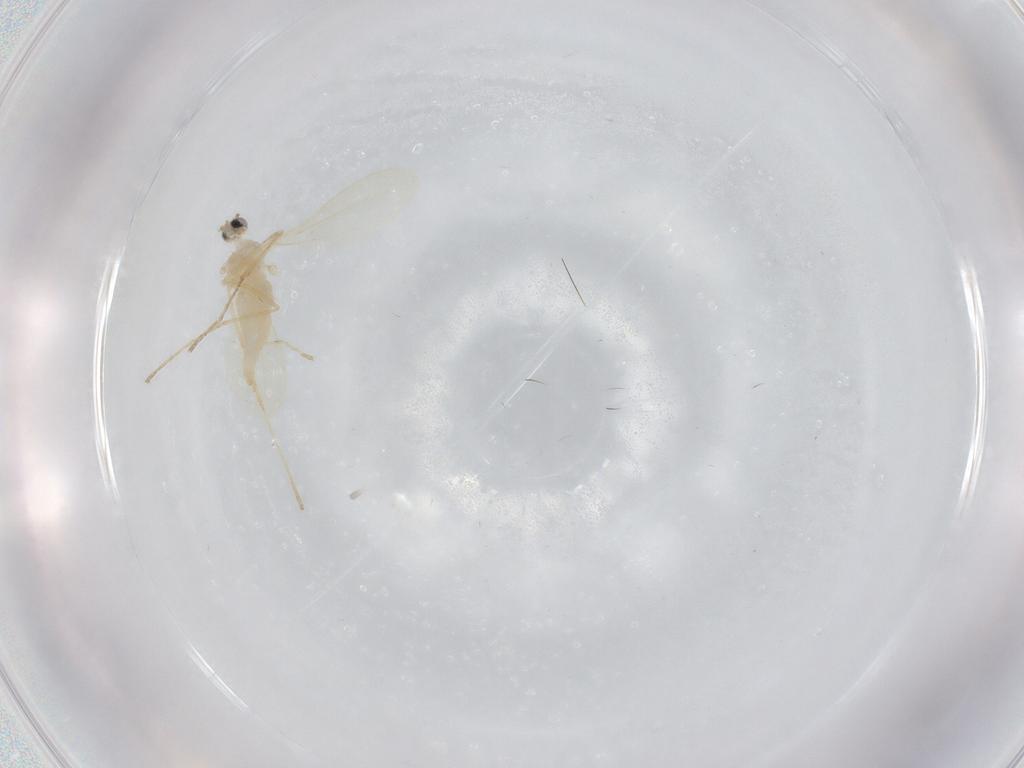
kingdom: Animalia
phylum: Arthropoda
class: Insecta
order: Diptera
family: Cecidomyiidae
